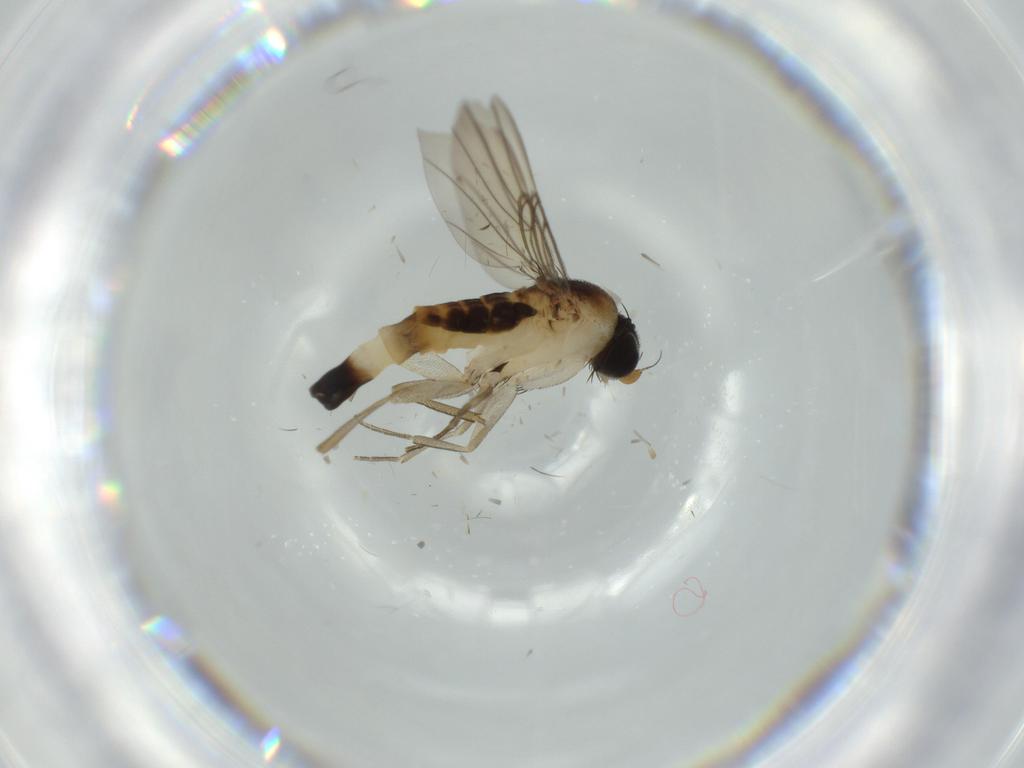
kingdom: Animalia
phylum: Arthropoda
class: Insecta
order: Diptera
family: Phoridae
